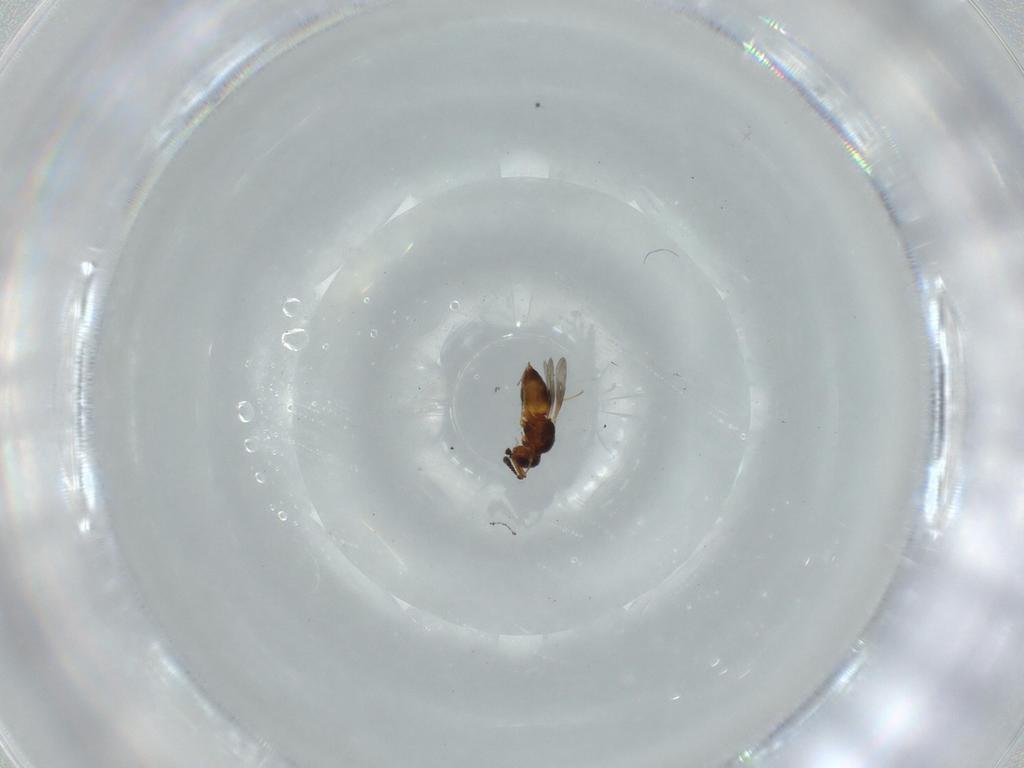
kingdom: Animalia
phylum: Arthropoda
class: Insecta
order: Hymenoptera
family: Ceraphronidae
